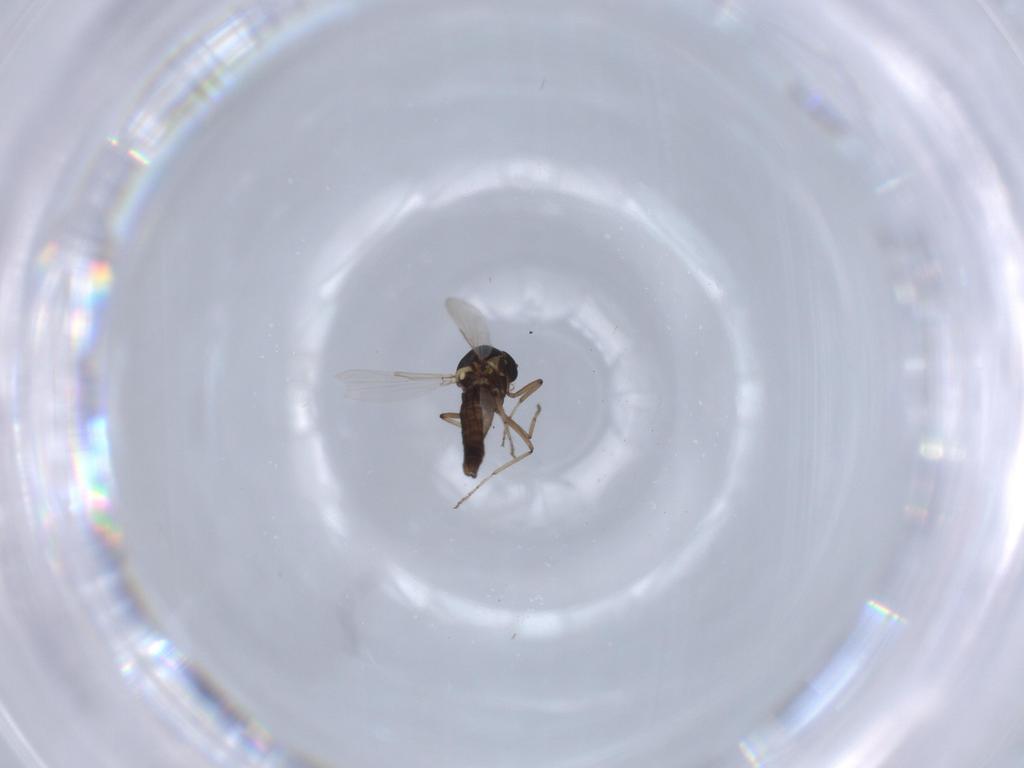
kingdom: Animalia
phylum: Arthropoda
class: Insecta
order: Diptera
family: Ceratopogonidae
